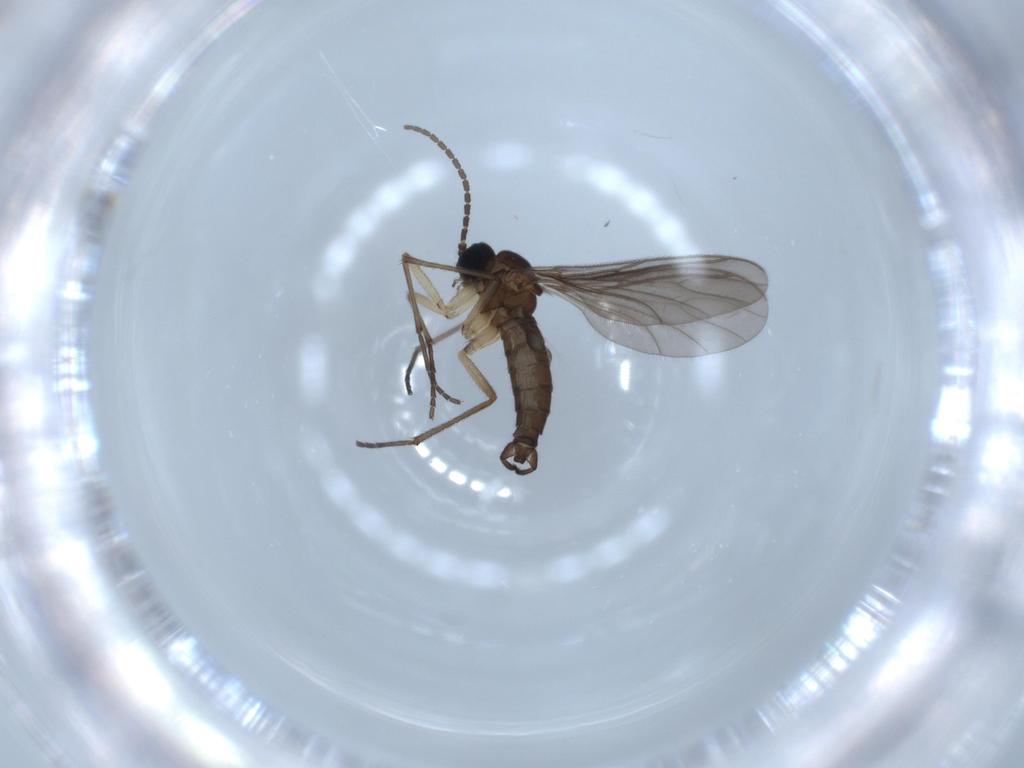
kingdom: Animalia
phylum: Arthropoda
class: Insecta
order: Diptera
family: Sciaridae
